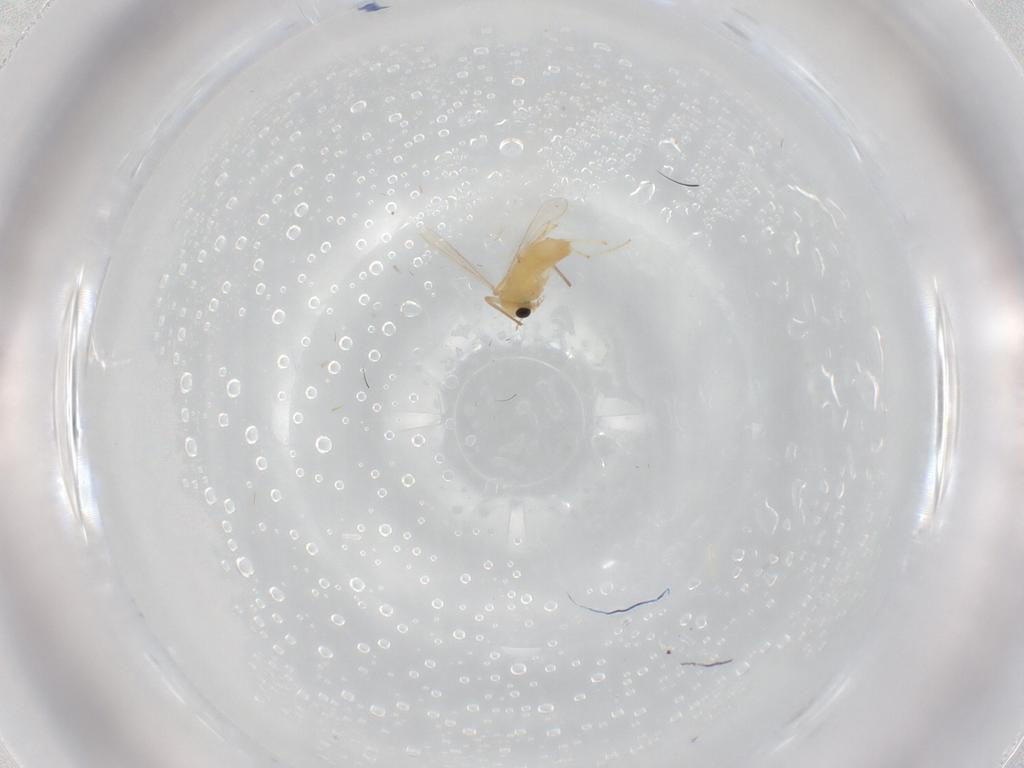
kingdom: Animalia
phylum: Arthropoda
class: Insecta
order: Diptera
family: Chironomidae
